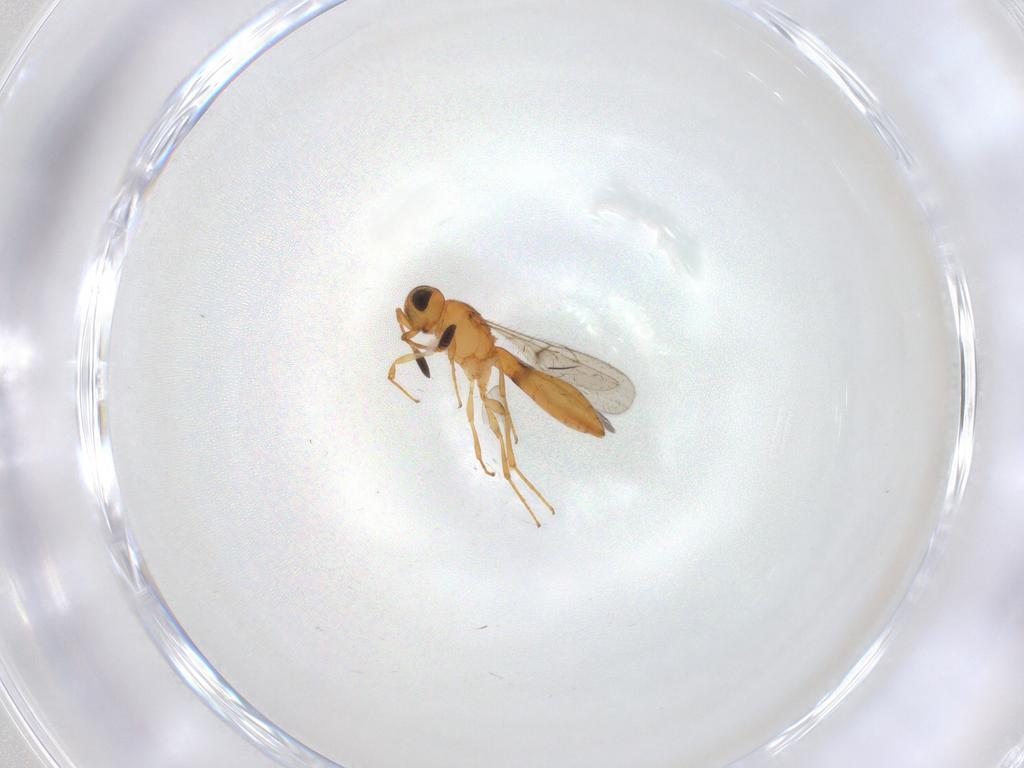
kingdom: Animalia
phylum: Arthropoda
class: Insecta
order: Hymenoptera
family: Scelionidae
